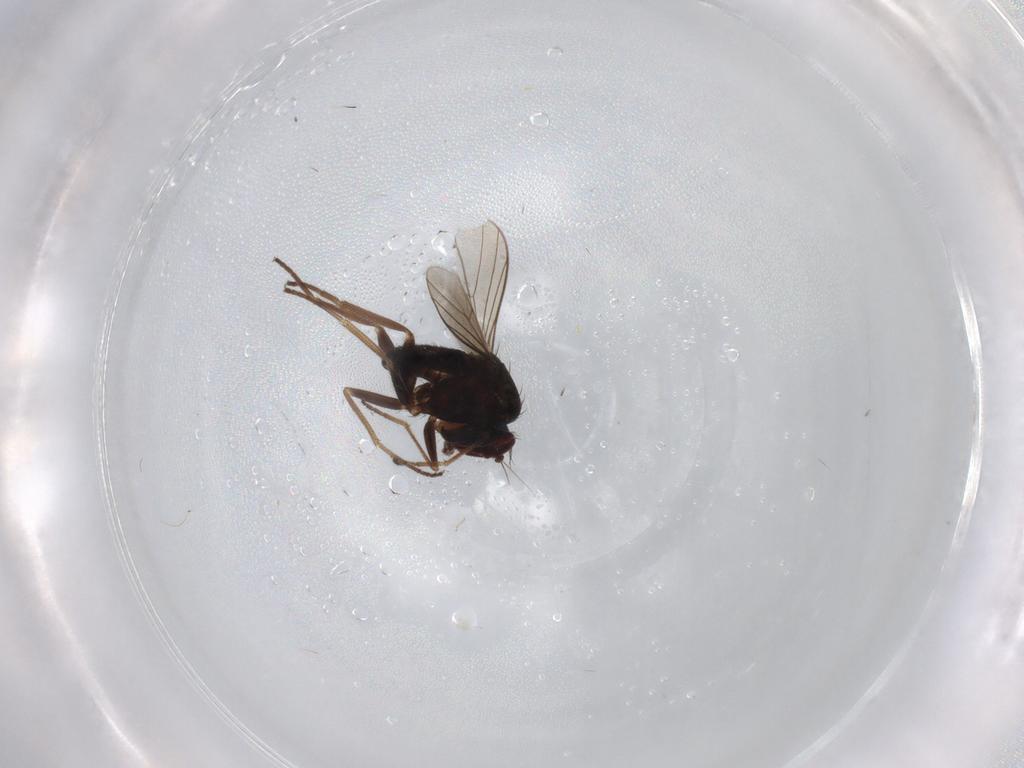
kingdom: Animalia
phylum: Arthropoda
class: Insecta
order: Diptera
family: Dolichopodidae
